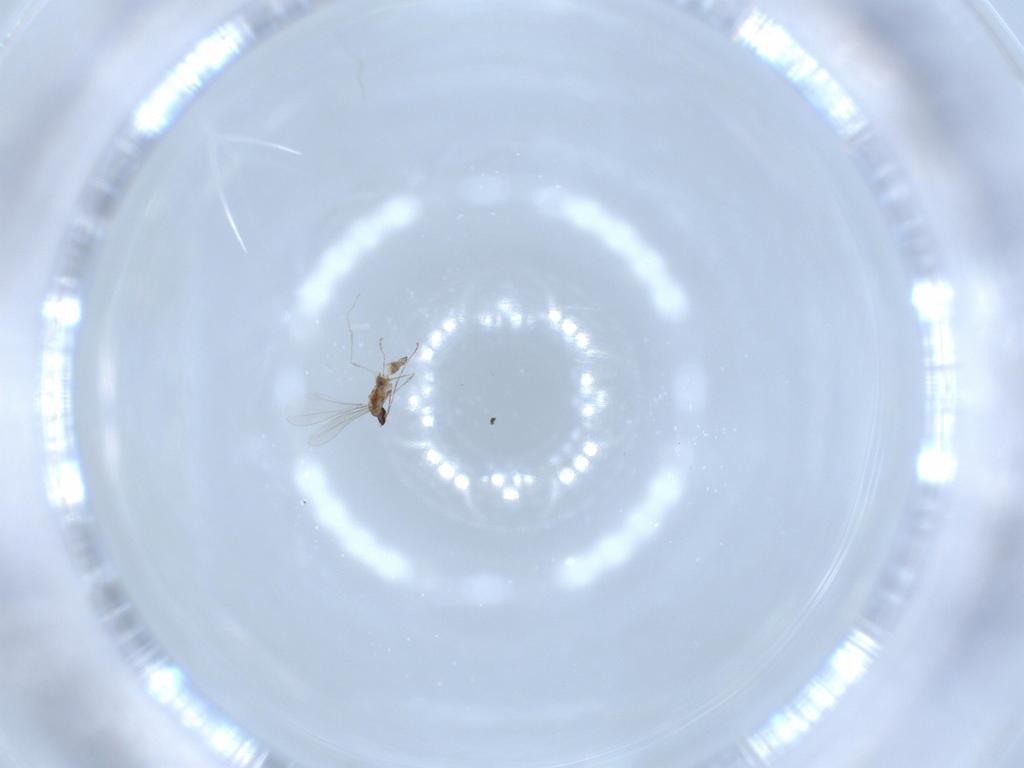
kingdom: Animalia
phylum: Arthropoda
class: Insecta
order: Diptera
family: Cecidomyiidae
